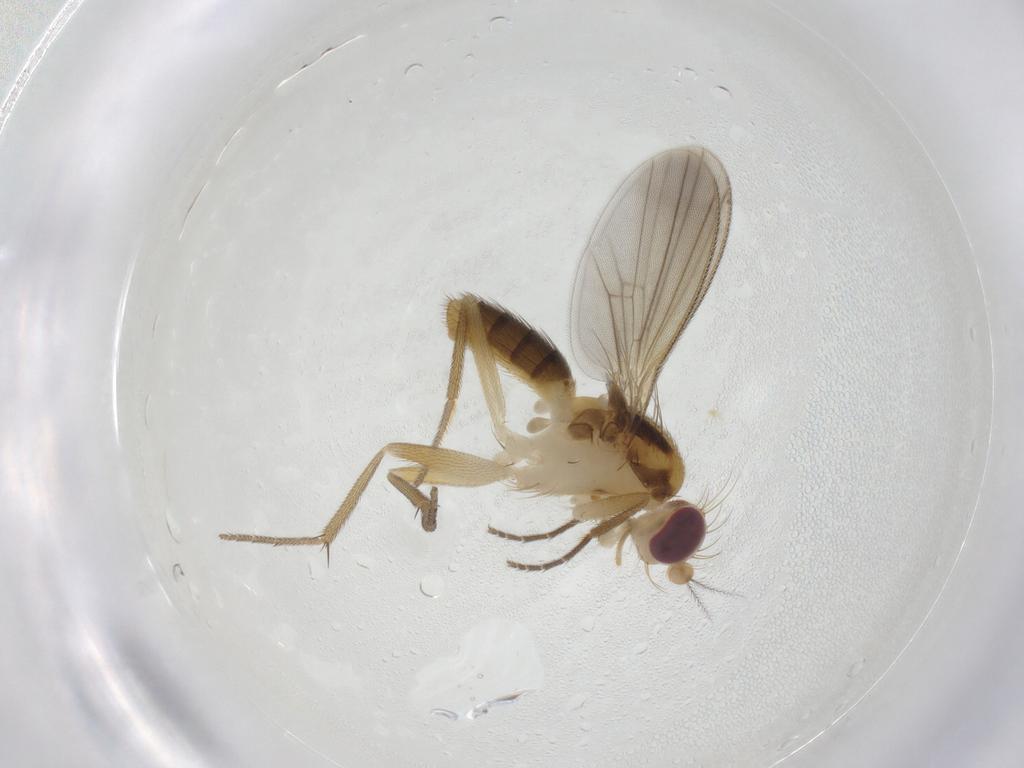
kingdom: Animalia
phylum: Arthropoda
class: Insecta
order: Diptera
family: Clusiidae
